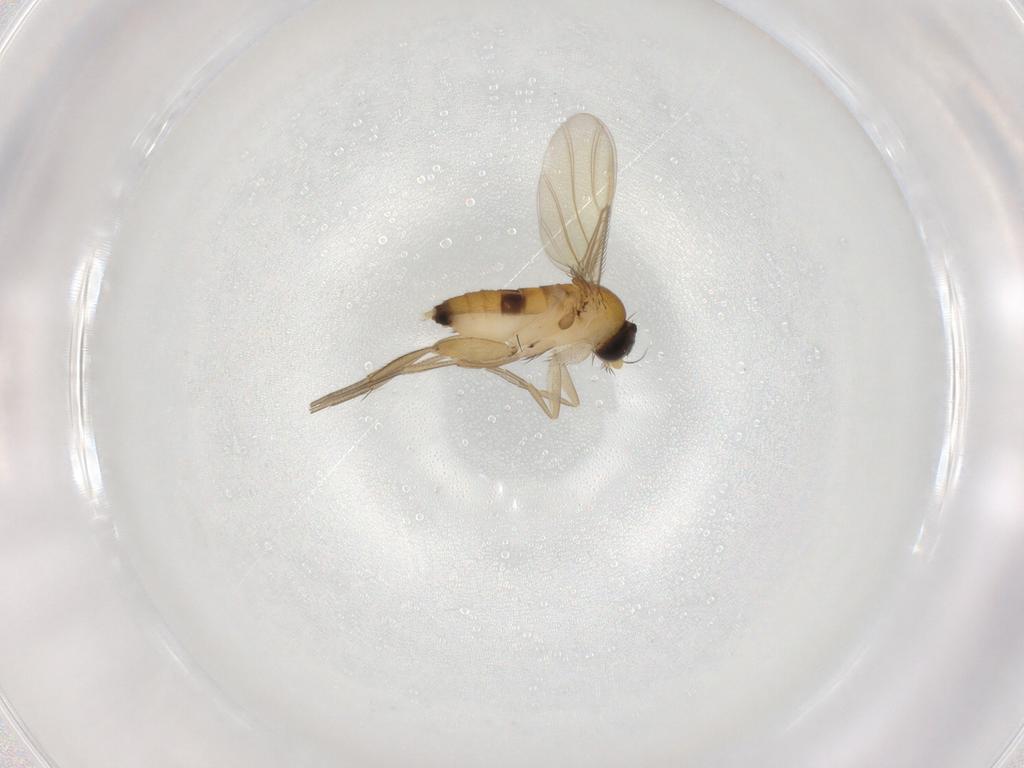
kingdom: Animalia
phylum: Arthropoda
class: Insecta
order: Diptera
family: Phoridae
